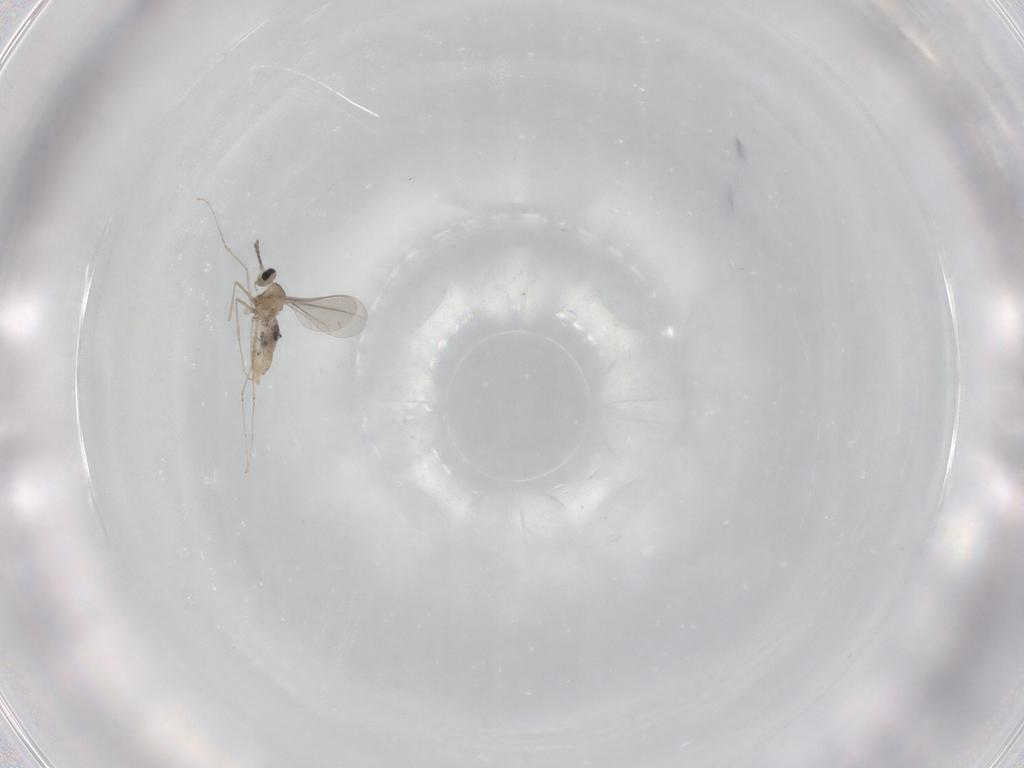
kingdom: Animalia
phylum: Arthropoda
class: Insecta
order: Diptera
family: Cecidomyiidae
